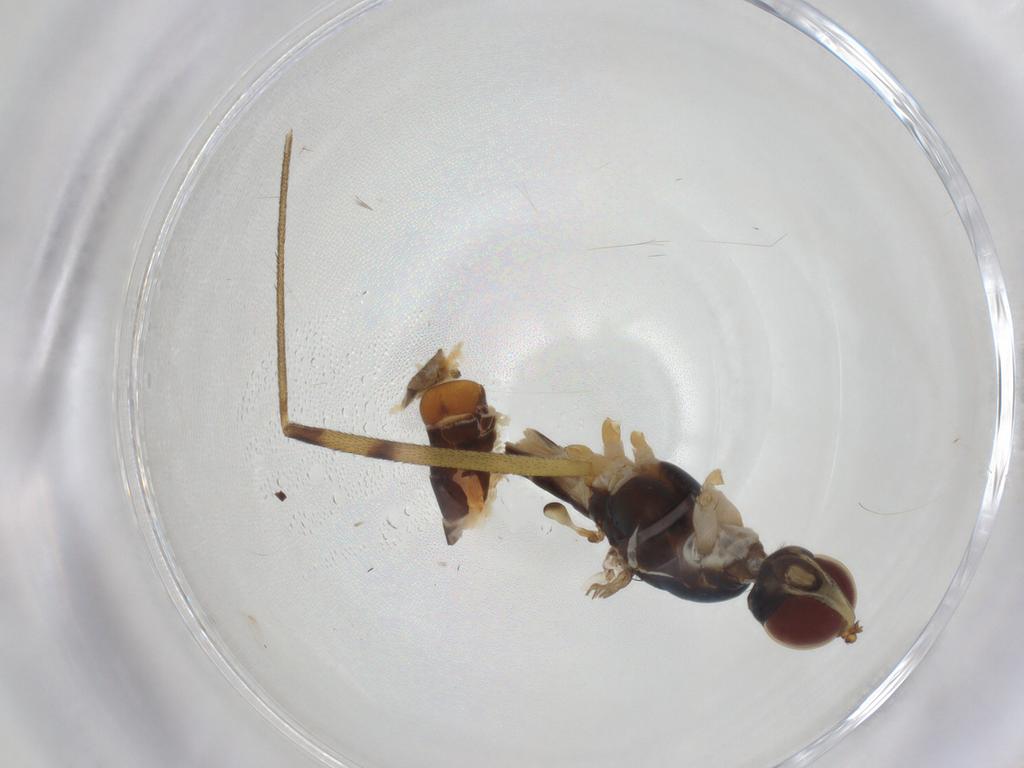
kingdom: Animalia
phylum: Arthropoda
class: Insecta
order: Diptera
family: Micropezidae
